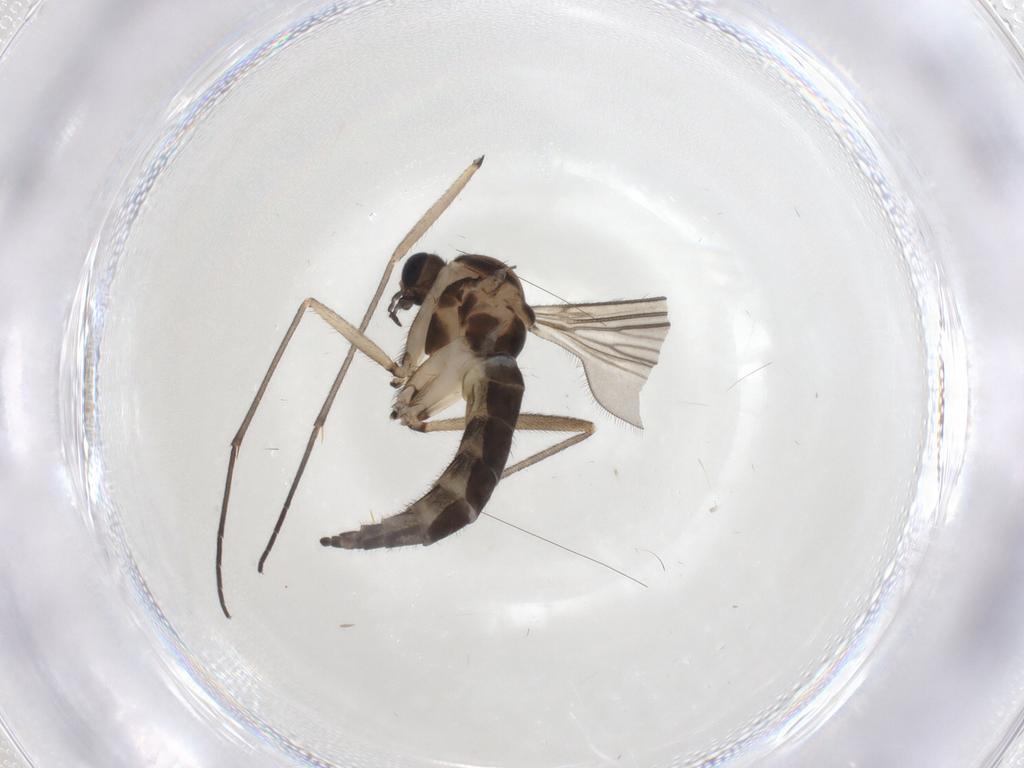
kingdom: Animalia
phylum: Arthropoda
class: Insecta
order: Diptera
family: Sciaridae
